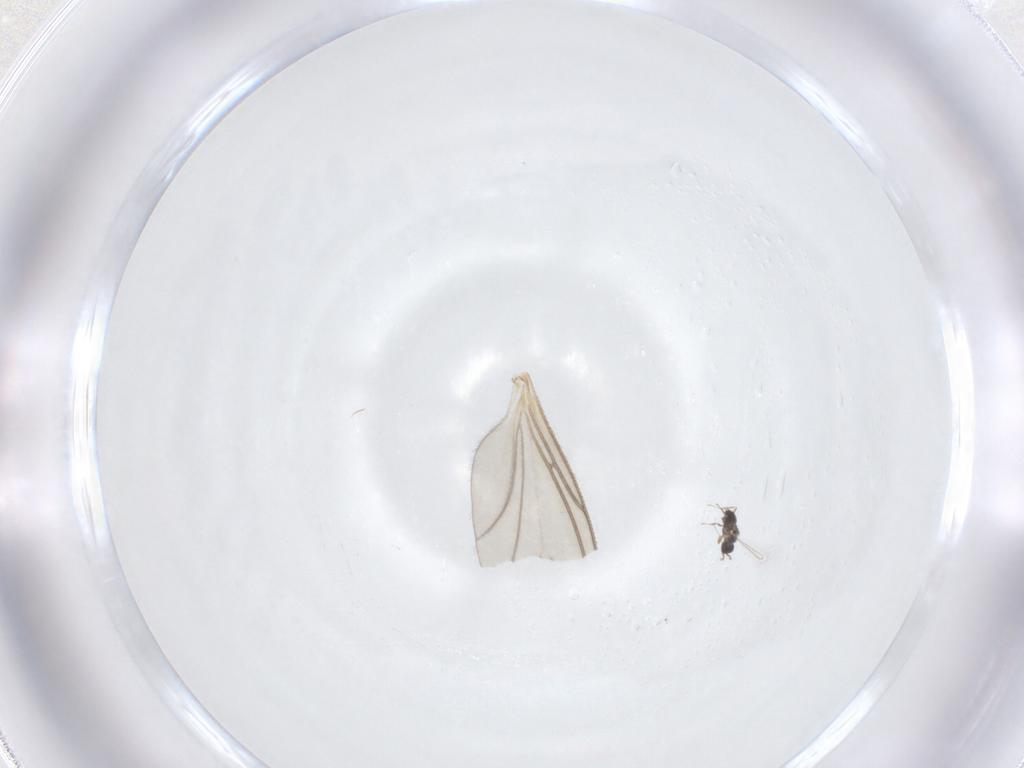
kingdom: Animalia
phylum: Arthropoda
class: Insecta
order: Diptera
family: Sciaridae
